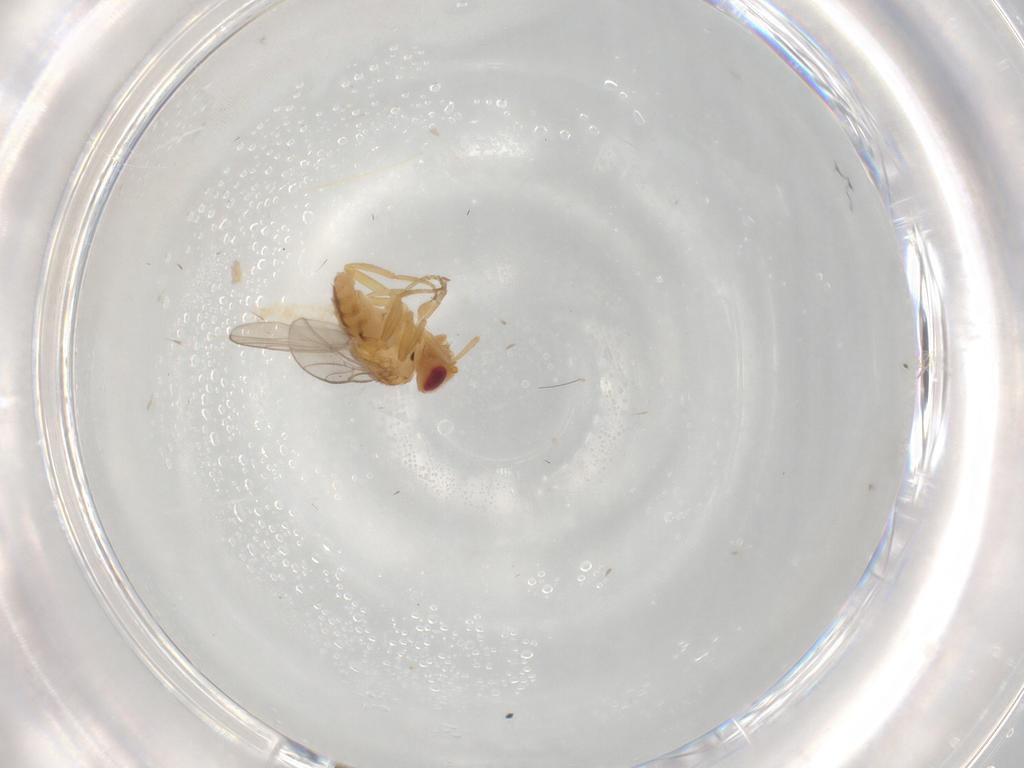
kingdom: Animalia
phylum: Arthropoda
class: Insecta
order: Diptera
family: Chloropidae
